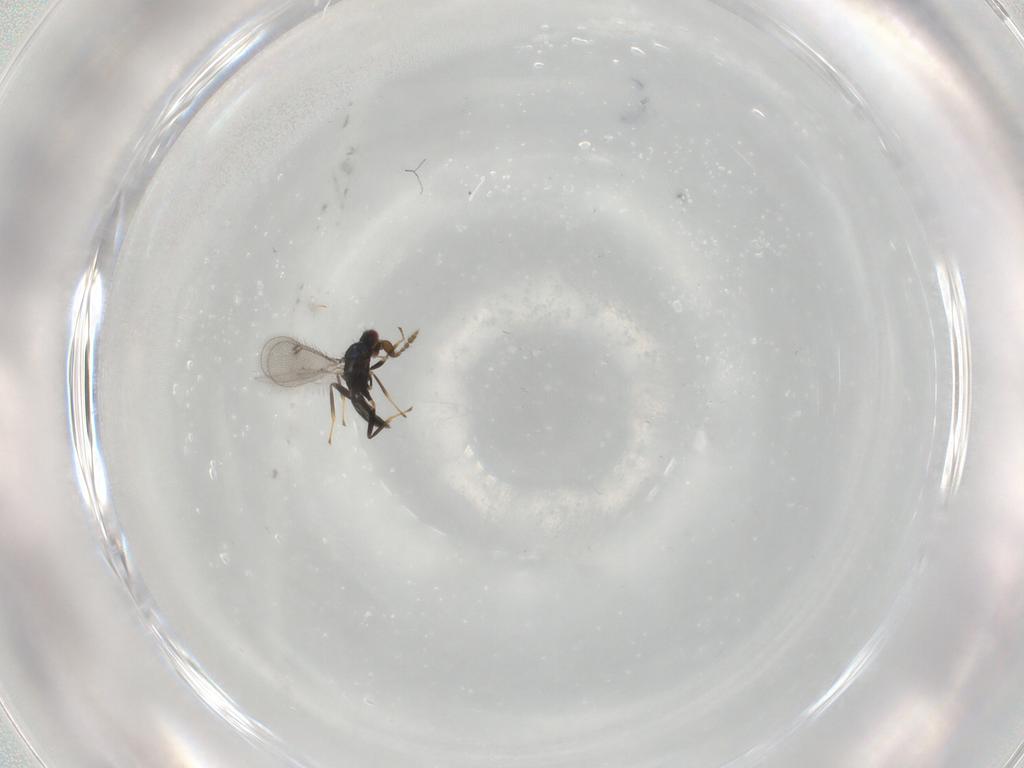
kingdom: Animalia
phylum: Arthropoda
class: Insecta
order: Hymenoptera
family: Eulophidae
